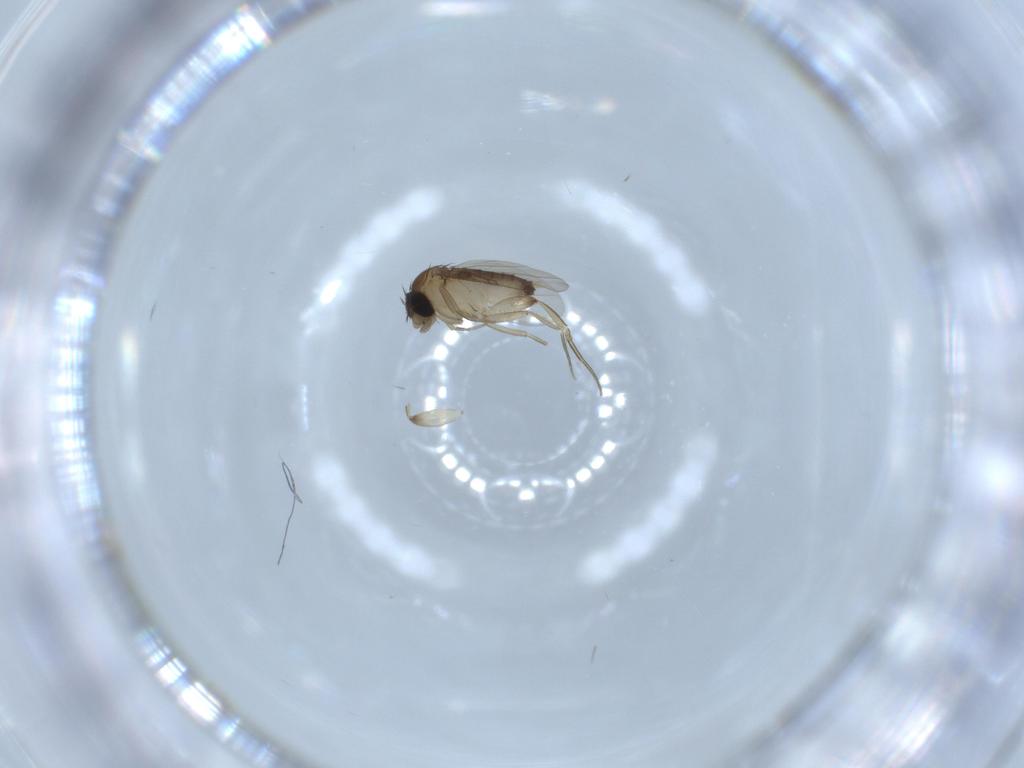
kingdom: Animalia
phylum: Arthropoda
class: Insecta
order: Diptera
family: Phoridae
